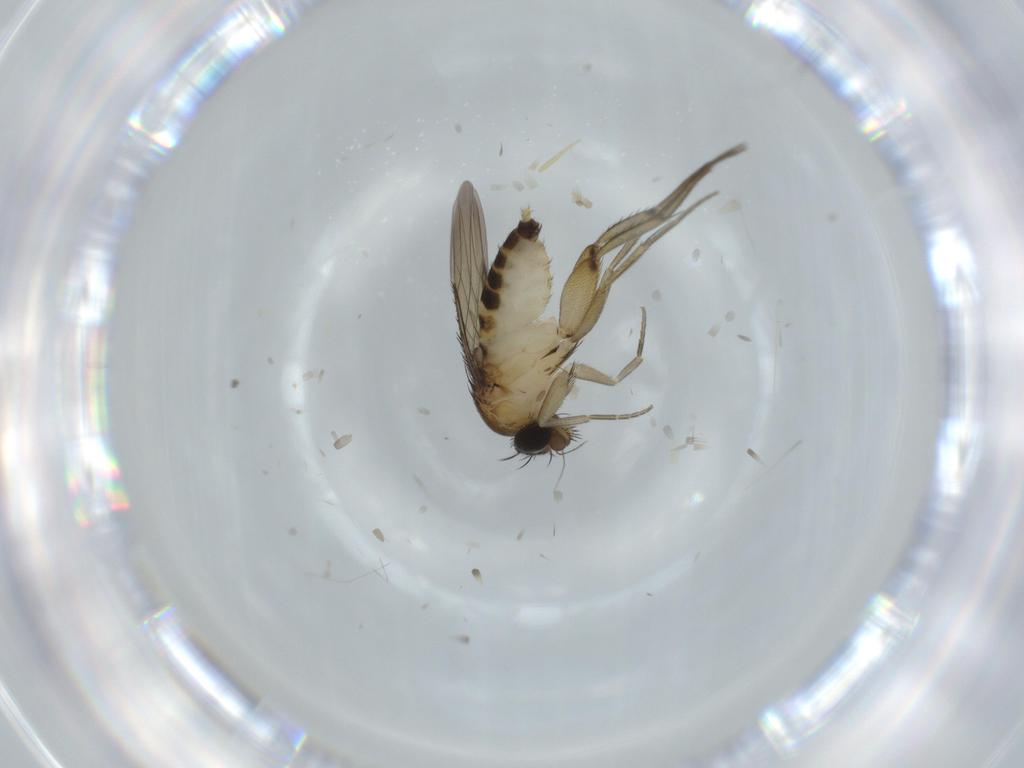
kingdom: Animalia
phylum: Arthropoda
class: Insecta
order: Diptera
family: Phoridae
